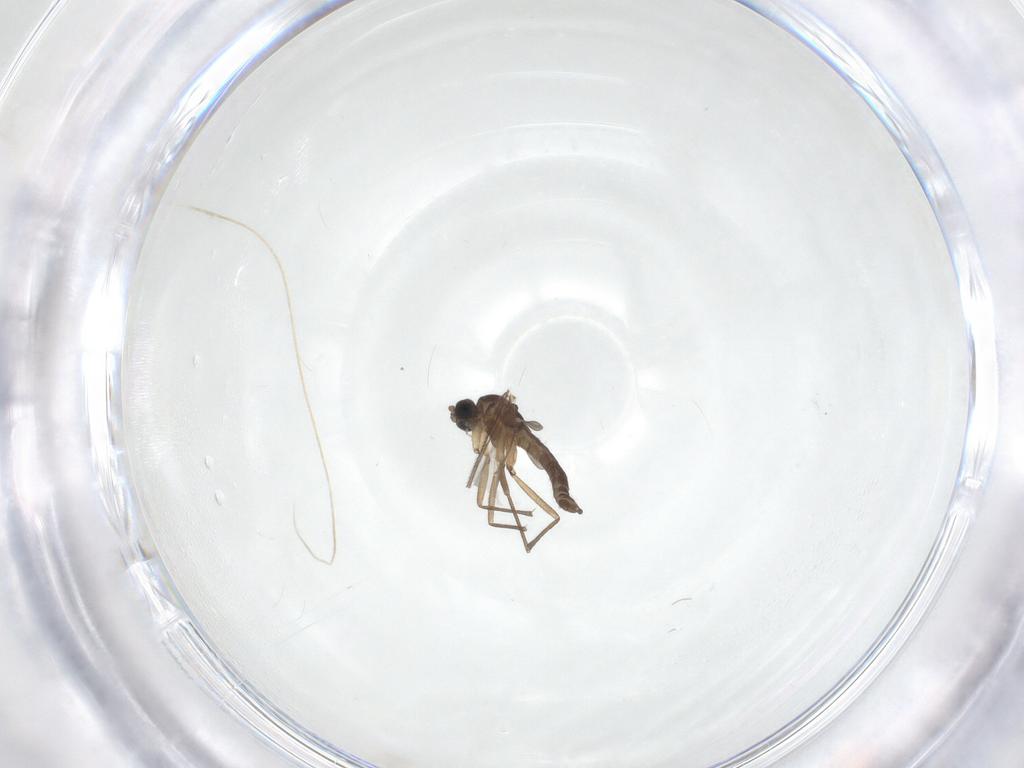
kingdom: Animalia
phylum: Arthropoda
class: Insecta
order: Diptera
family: Sciaridae
